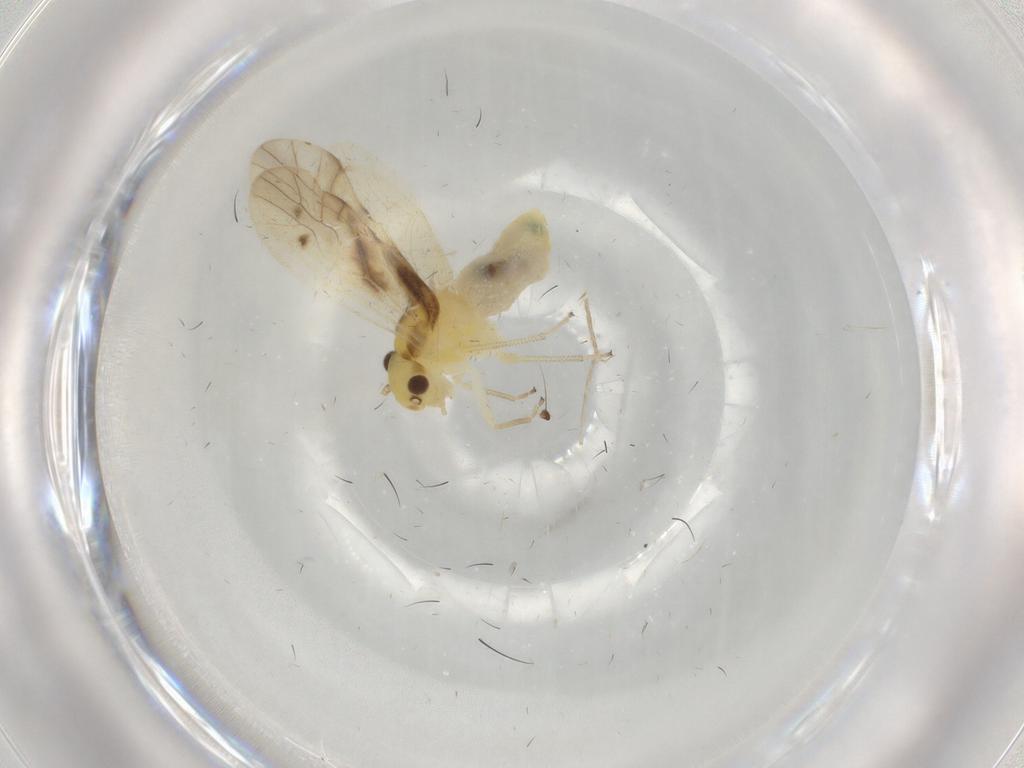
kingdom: Animalia
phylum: Arthropoda
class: Insecta
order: Psocodea
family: Caeciliusidae
